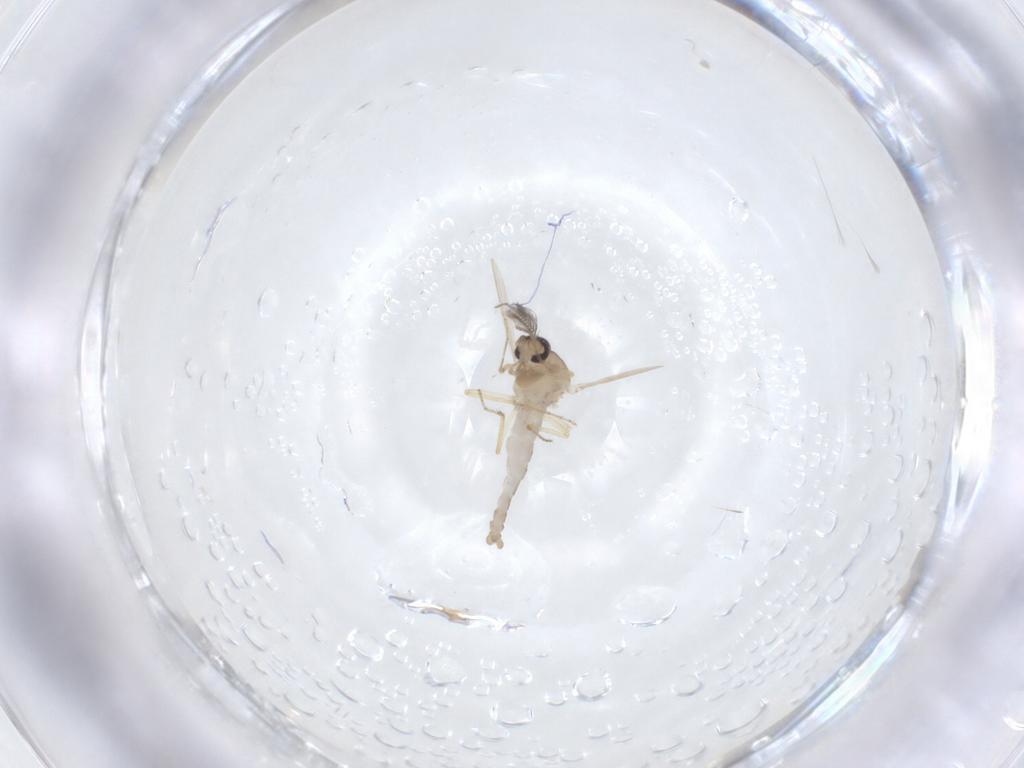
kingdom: Animalia
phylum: Arthropoda
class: Insecta
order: Diptera
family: Ceratopogonidae
